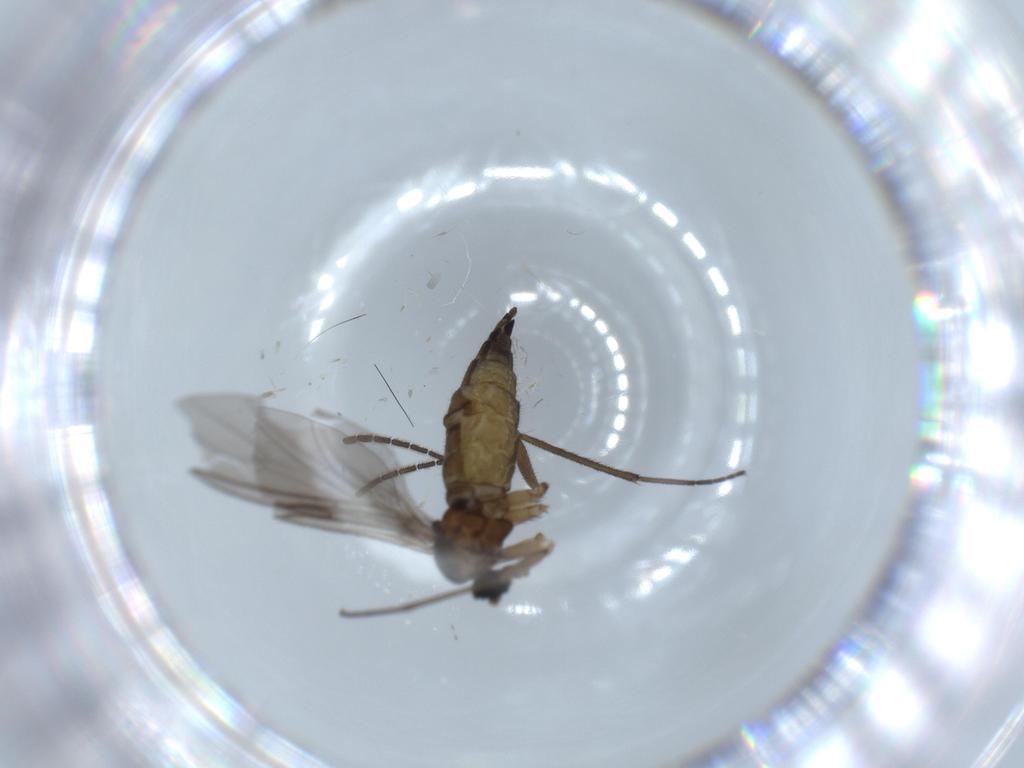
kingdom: Animalia
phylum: Arthropoda
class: Insecta
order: Diptera
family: Sciaridae
